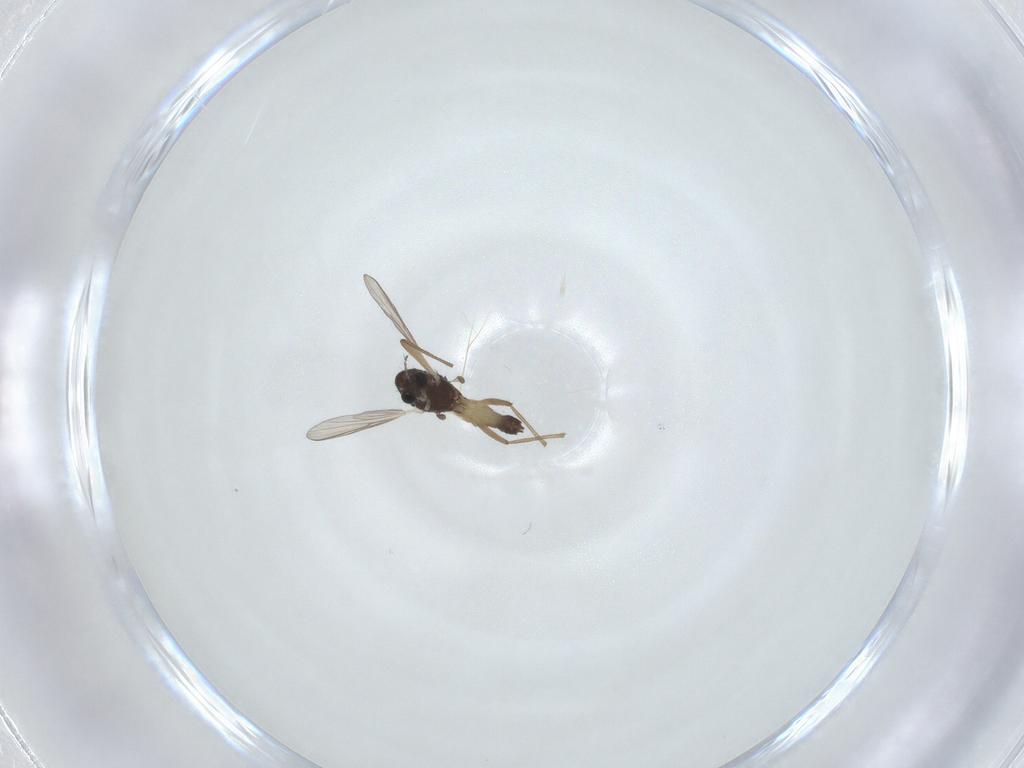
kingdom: Animalia
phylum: Arthropoda
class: Insecta
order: Diptera
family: Chironomidae
